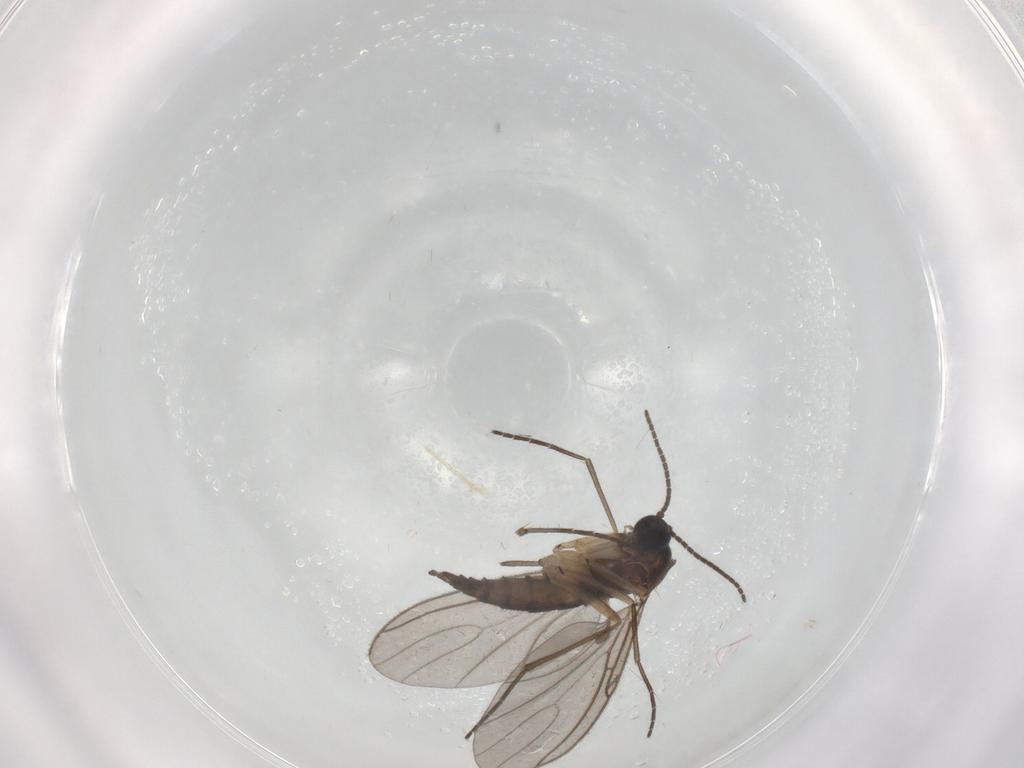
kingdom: Animalia
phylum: Arthropoda
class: Insecta
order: Diptera
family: Sciaridae
